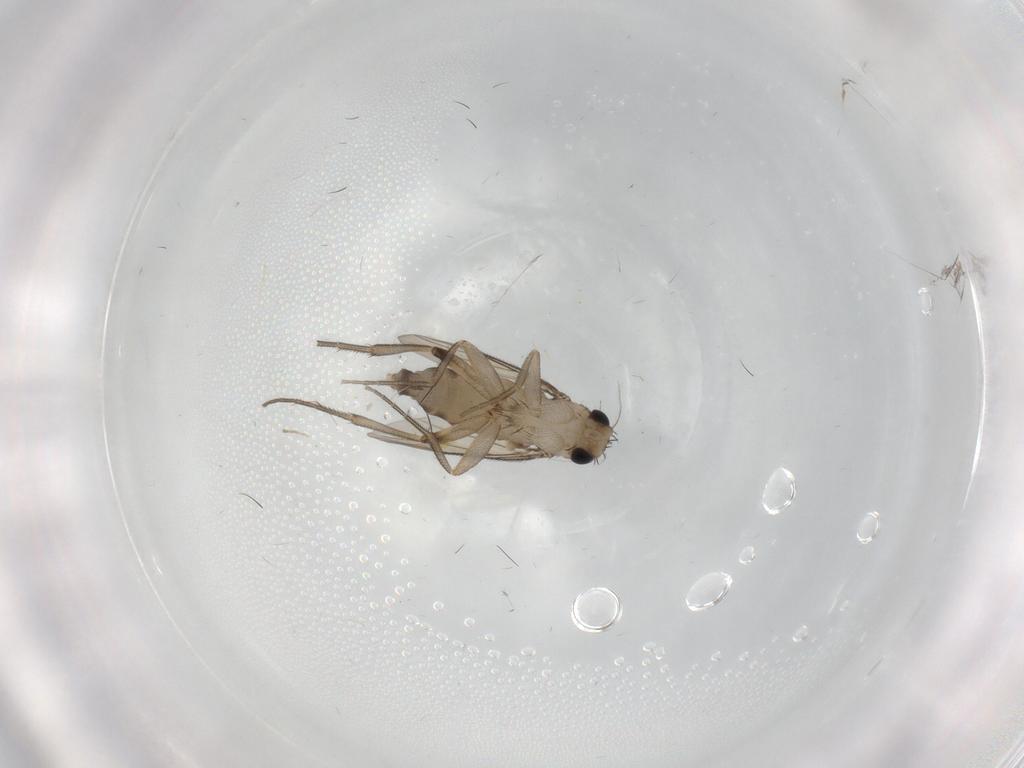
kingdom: Animalia
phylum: Arthropoda
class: Insecta
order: Diptera
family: Phoridae
